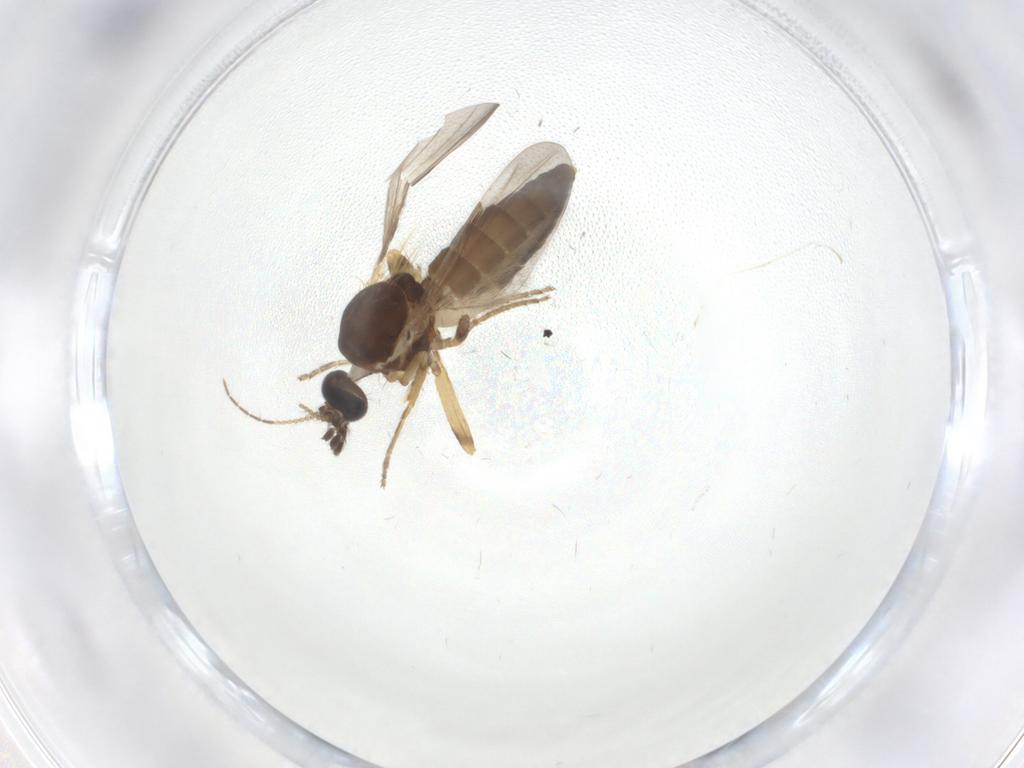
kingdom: Animalia
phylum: Arthropoda
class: Insecta
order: Diptera
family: Ceratopogonidae
